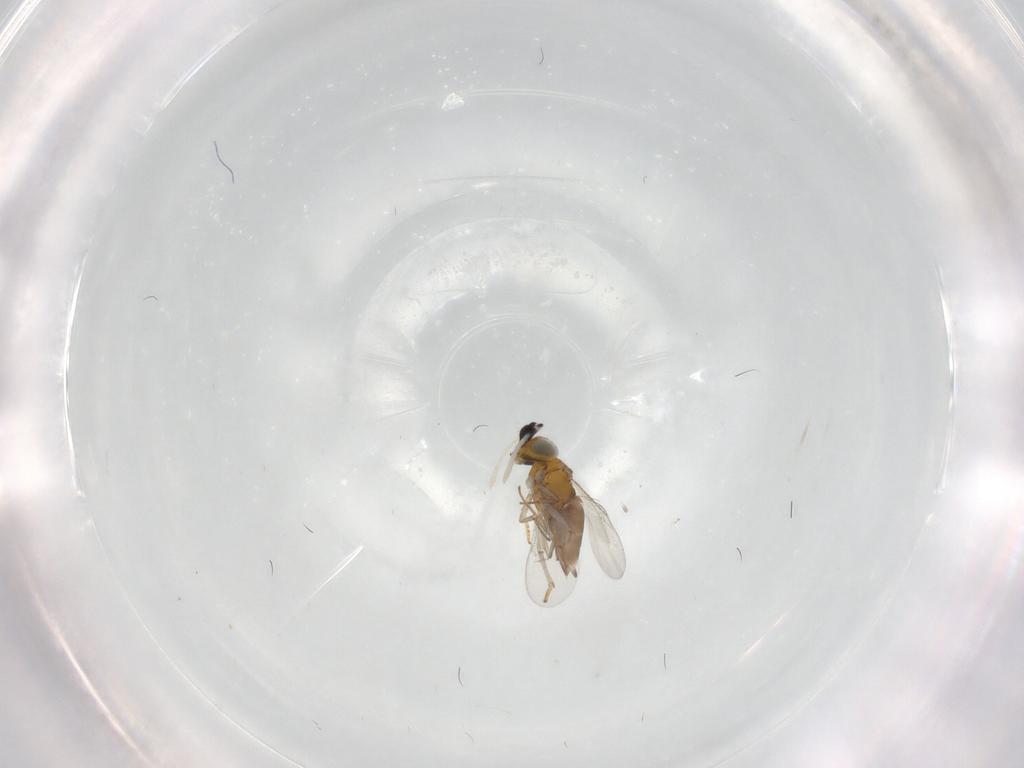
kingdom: Animalia
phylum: Arthropoda
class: Insecta
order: Hymenoptera
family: Encyrtidae
